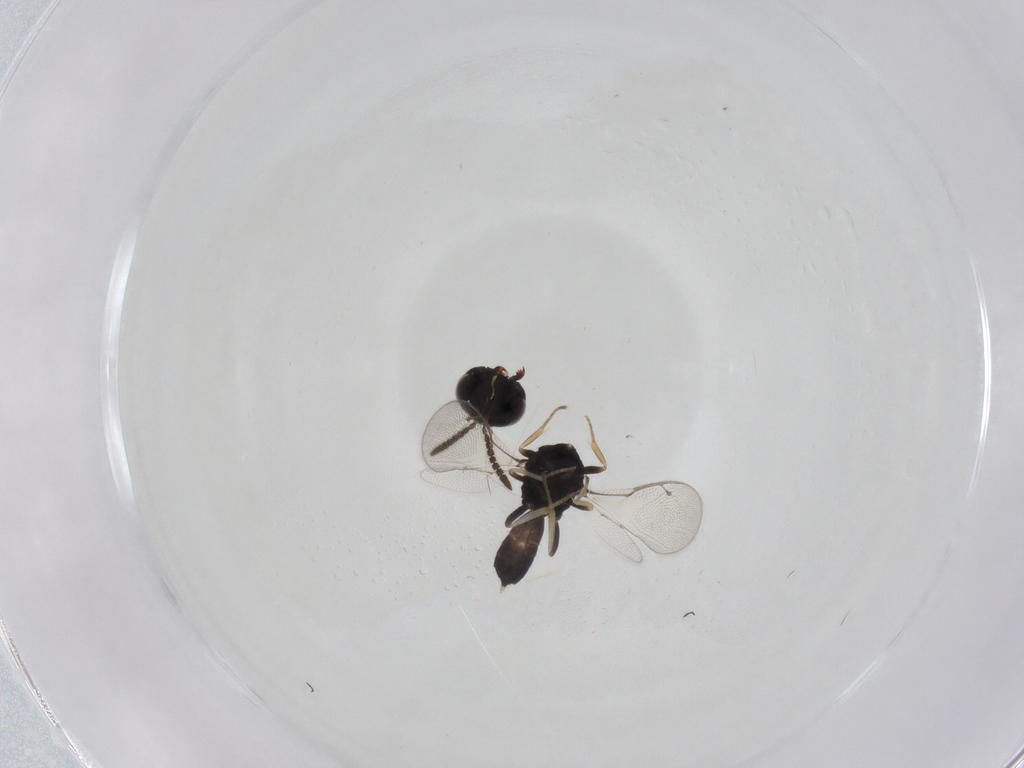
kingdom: Animalia
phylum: Arthropoda
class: Insecta
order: Hymenoptera
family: Pteromalidae
